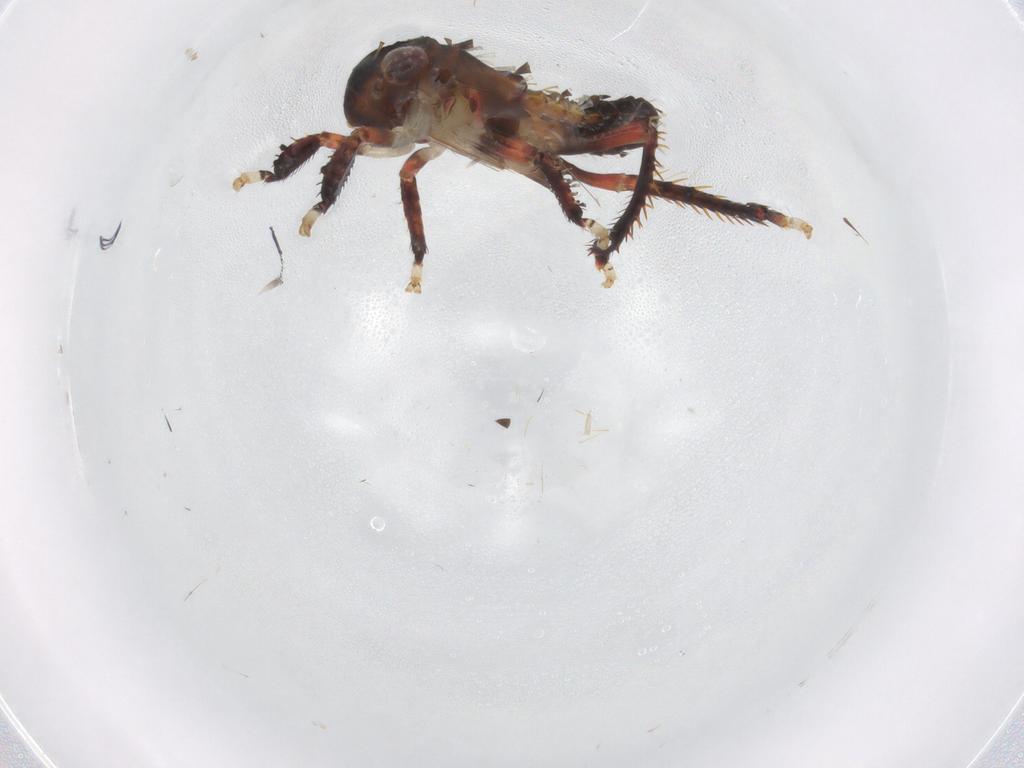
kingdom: Animalia
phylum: Arthropoda
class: Insecta
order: Hemiptera
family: Cicadellidae
